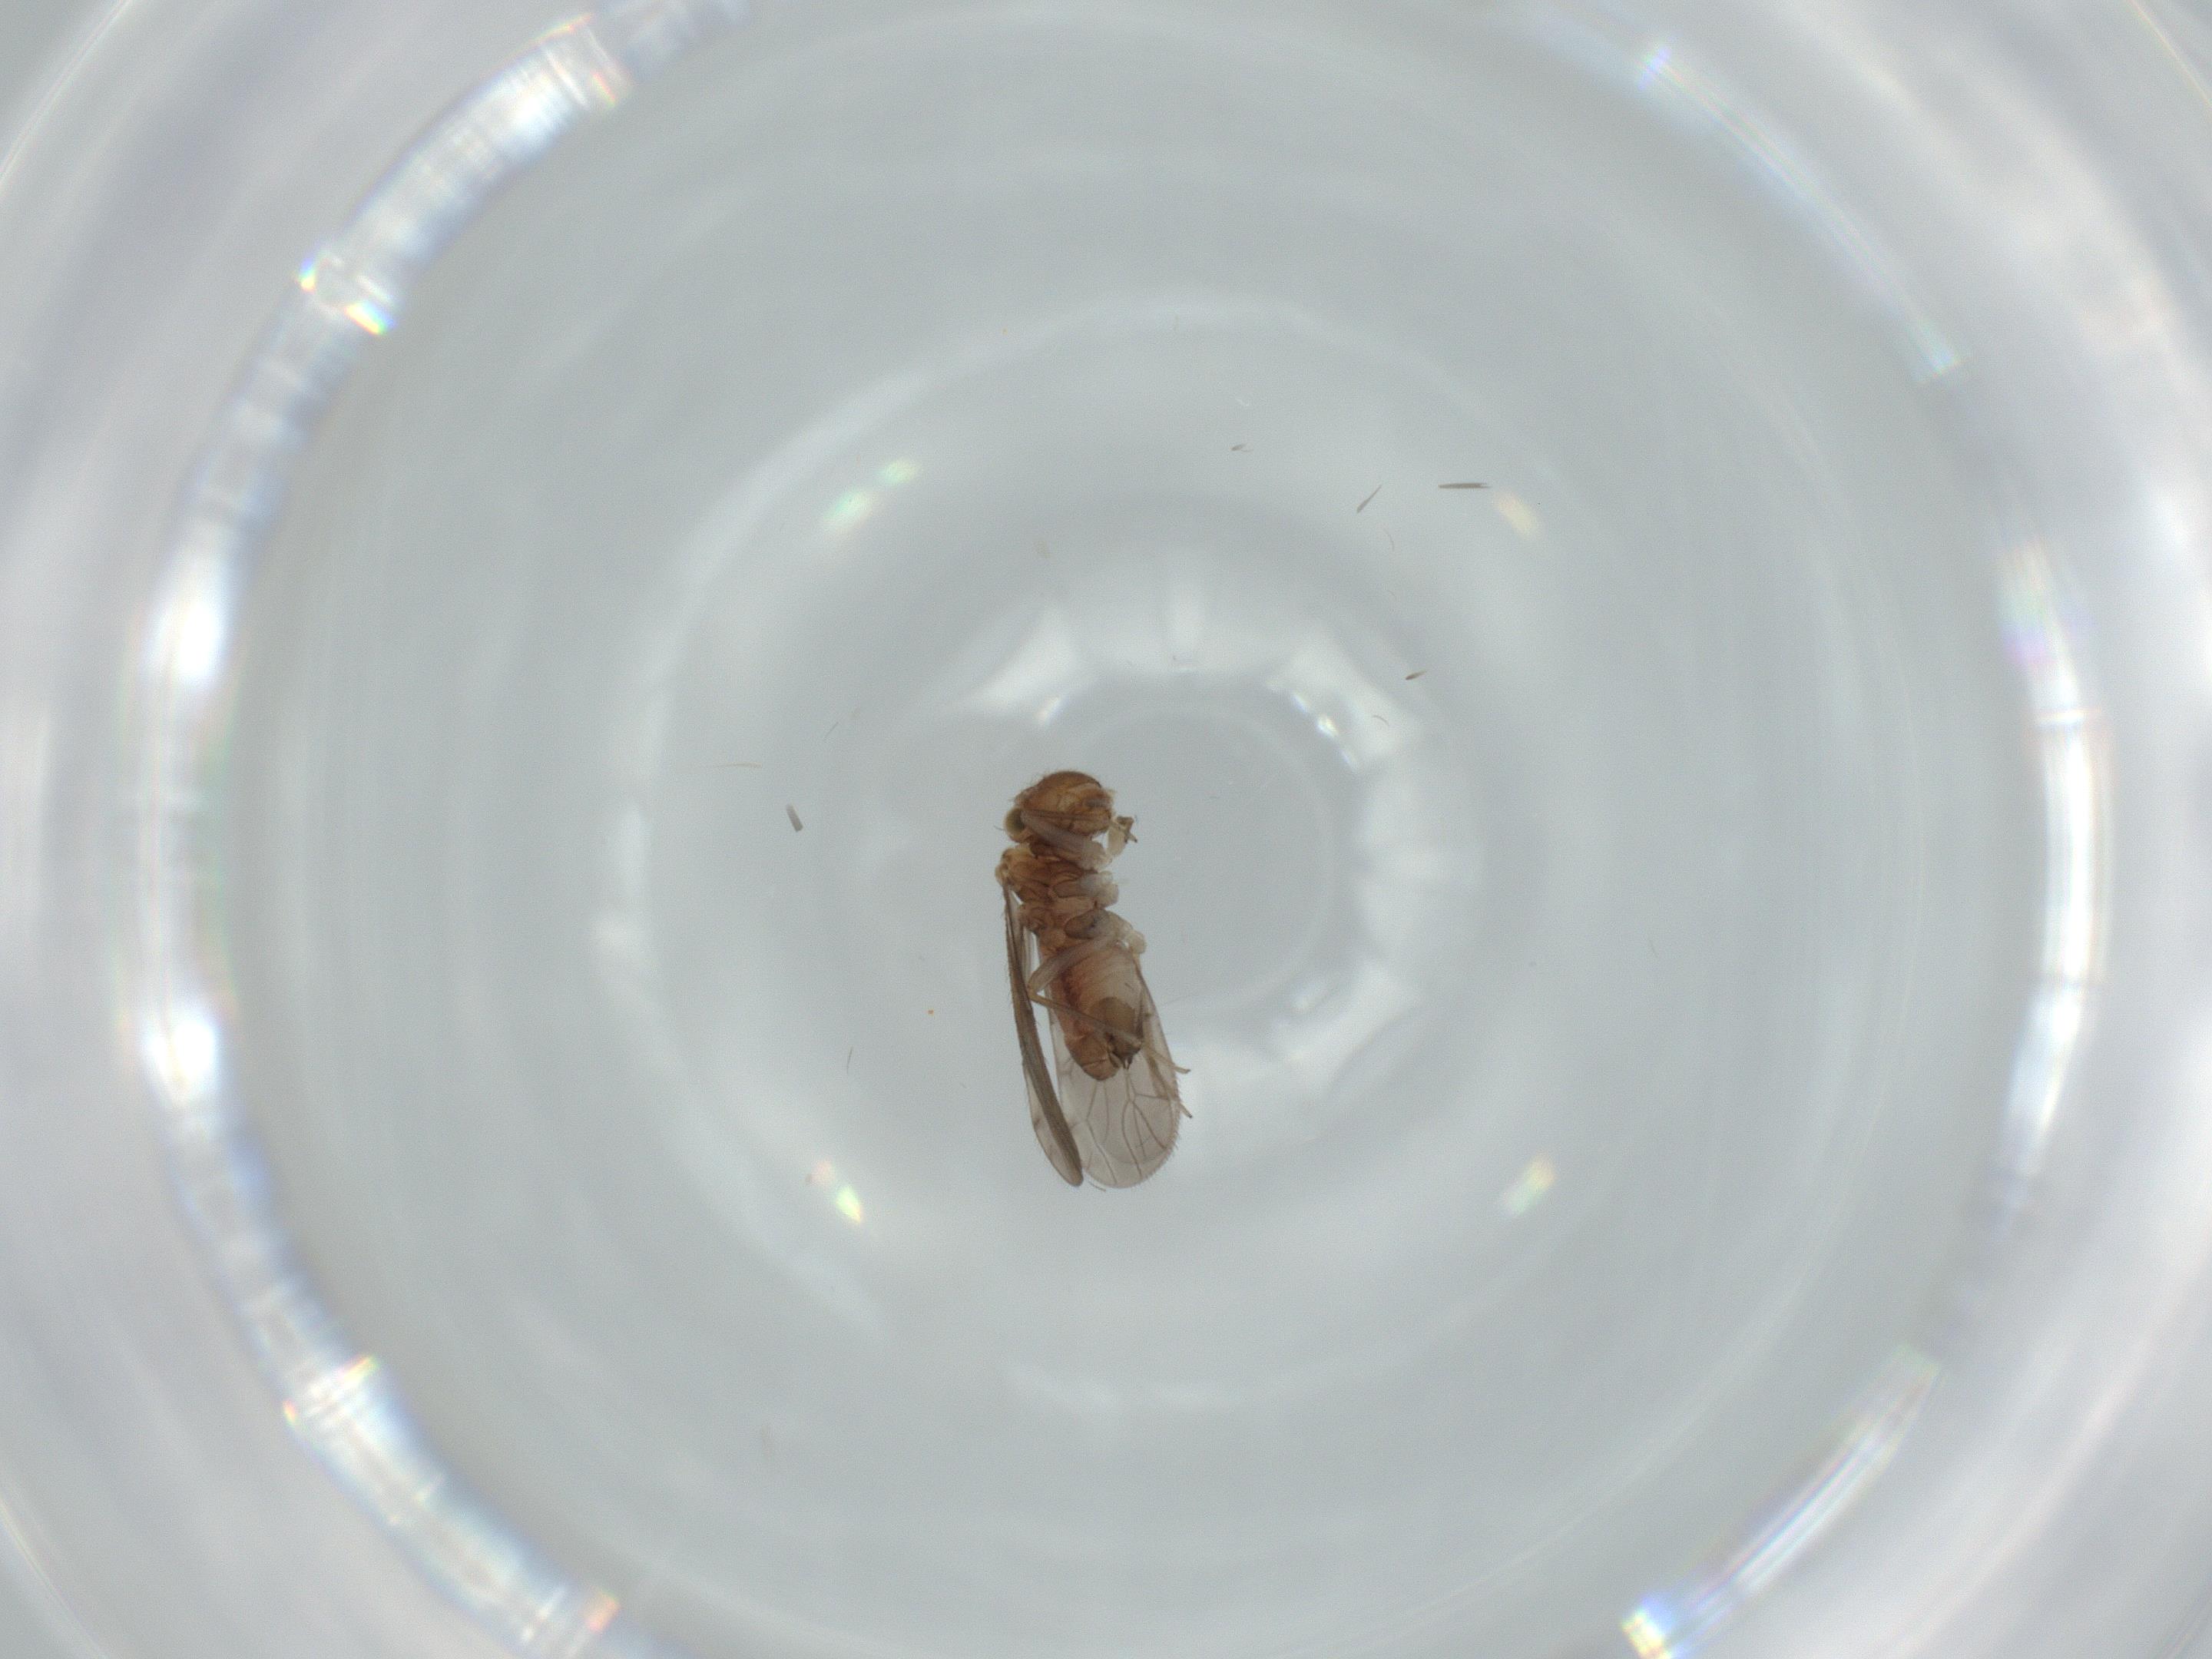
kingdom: Animalia
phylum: Arthropoda
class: Insecta
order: Psocodea
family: Ectopsocidae
